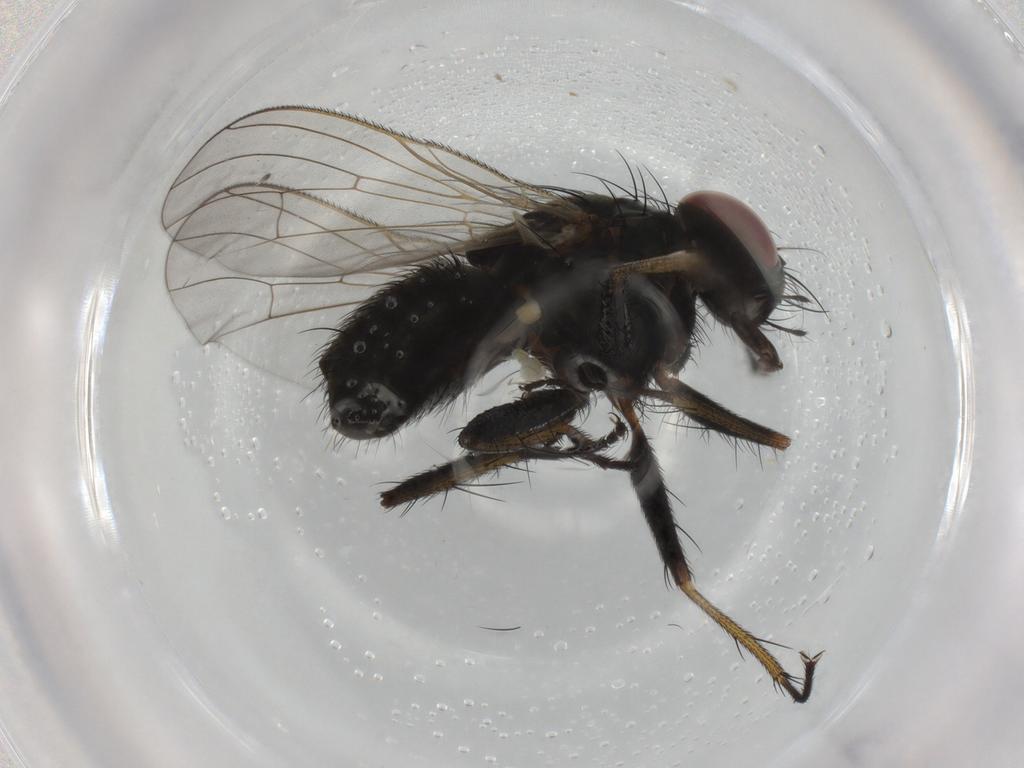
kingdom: Animalia
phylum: Arthropoda
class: Insecta
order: Diptera
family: Muscidae
